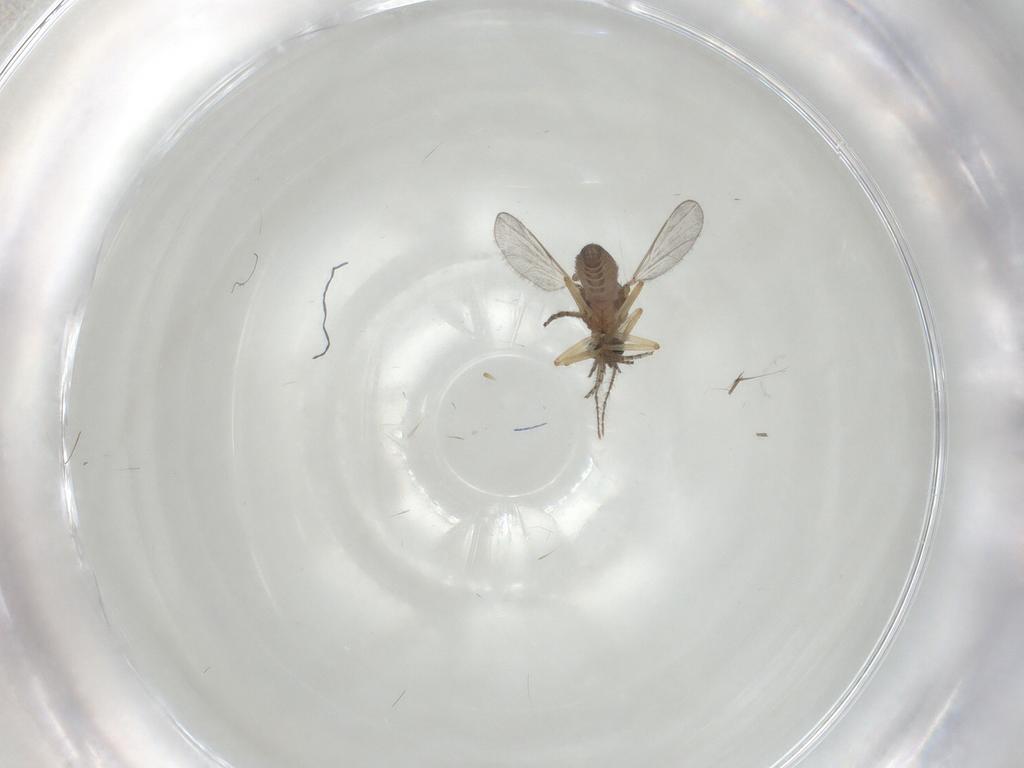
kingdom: Animalia
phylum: Arthropoda
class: Insecta
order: Diptera
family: Ceratopogonidae
